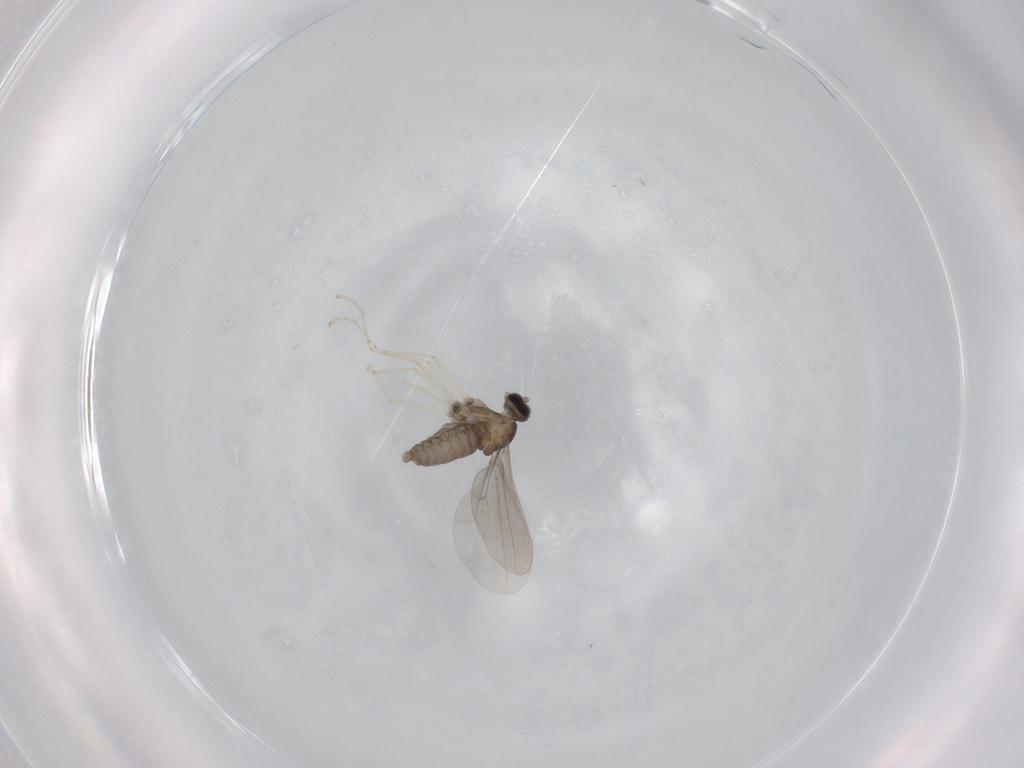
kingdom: Animalia
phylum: Arthropoda
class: Insecta
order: Diptera
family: Cecidomyiidae
